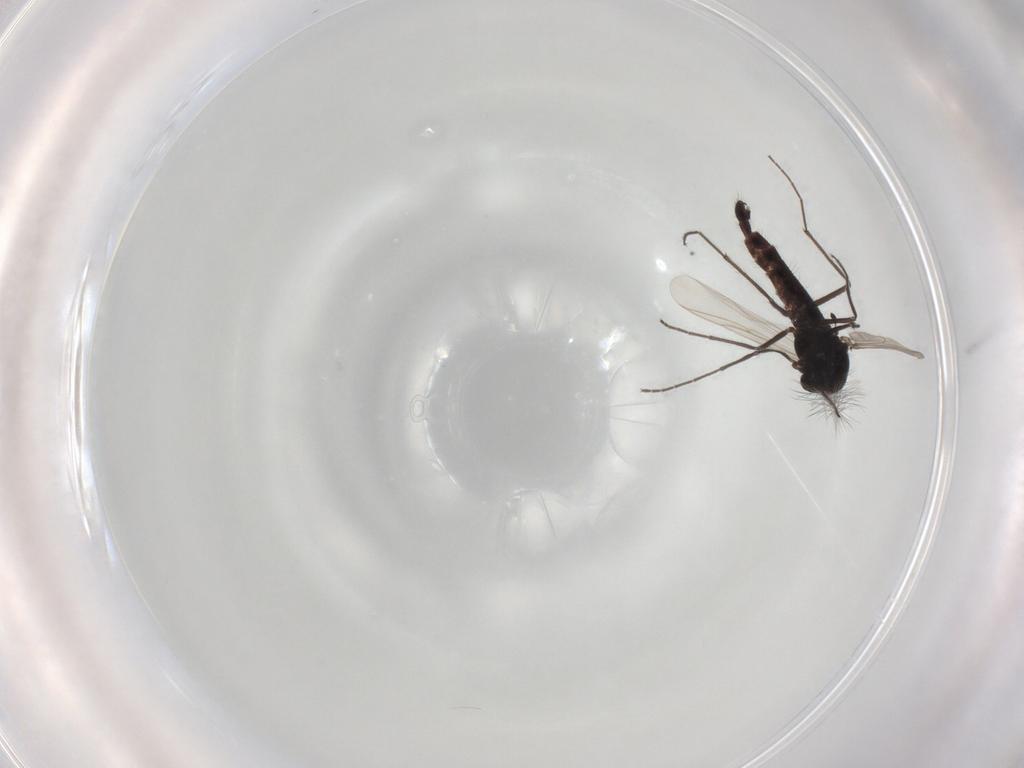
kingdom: Animalia
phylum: Arthropoda
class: Insecta
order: Diptera
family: Chironomidae
